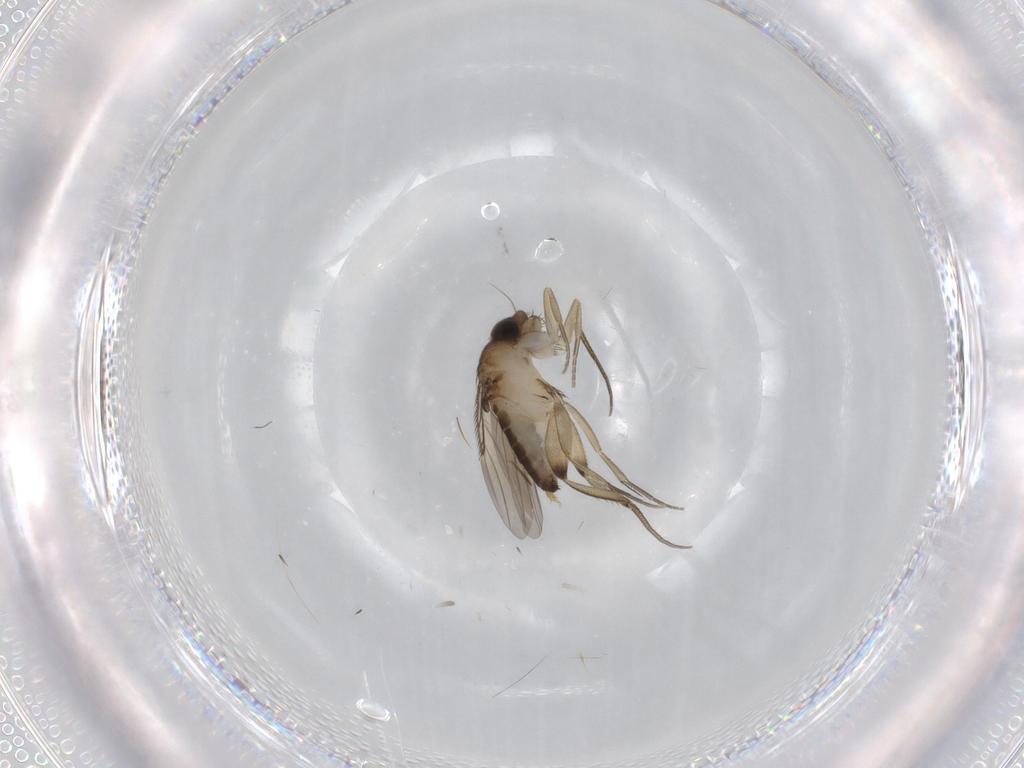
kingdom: Animalia
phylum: Arthropoda
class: Insecta
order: Diptera
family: Phoridae
